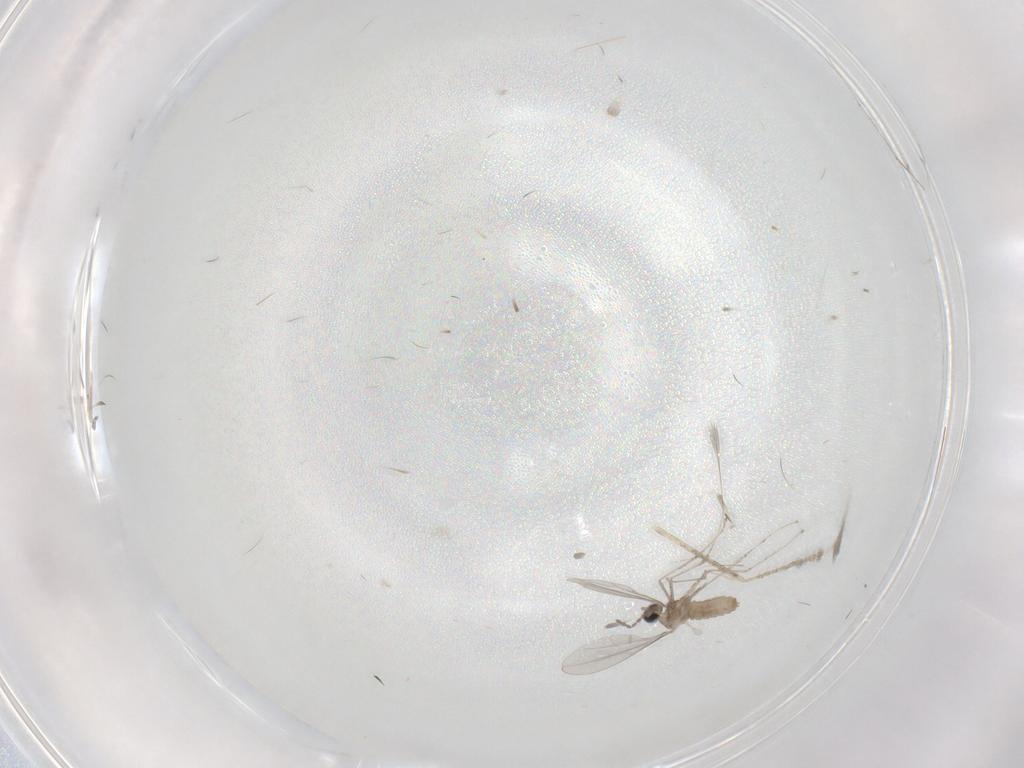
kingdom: Animalia
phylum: Arthropoda
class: Insecta
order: Diptera
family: Cecidomyiidae
